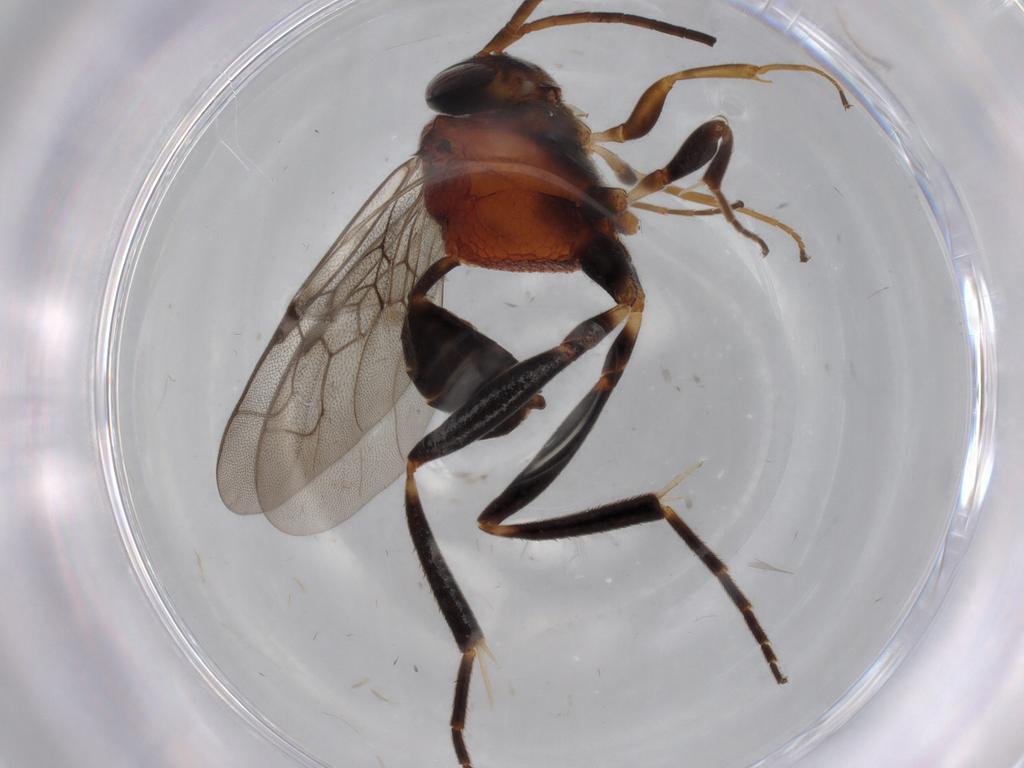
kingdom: Animalia
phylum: Arthropoda
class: Insecta
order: Hymenoptera
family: Evaniidae
